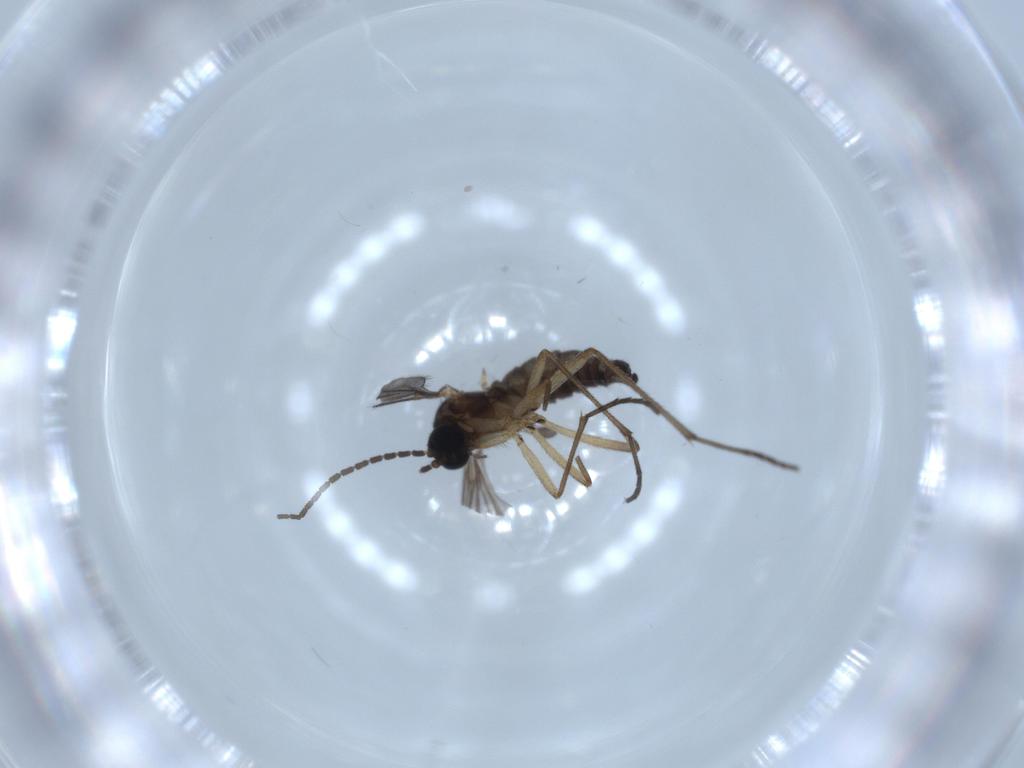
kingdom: Animalia
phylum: Arthropoda
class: Insecta
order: Diptera
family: Sciaridae
